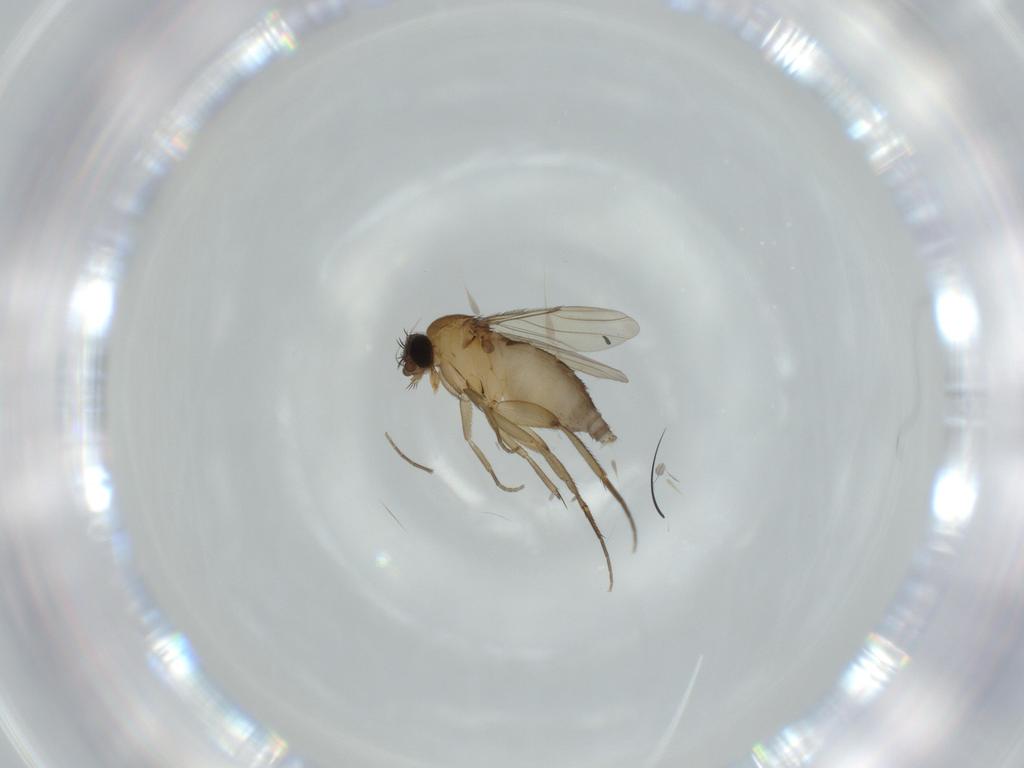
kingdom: Animalia
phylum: Arthropoda
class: Insecta
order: Diptera
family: Phoridae
